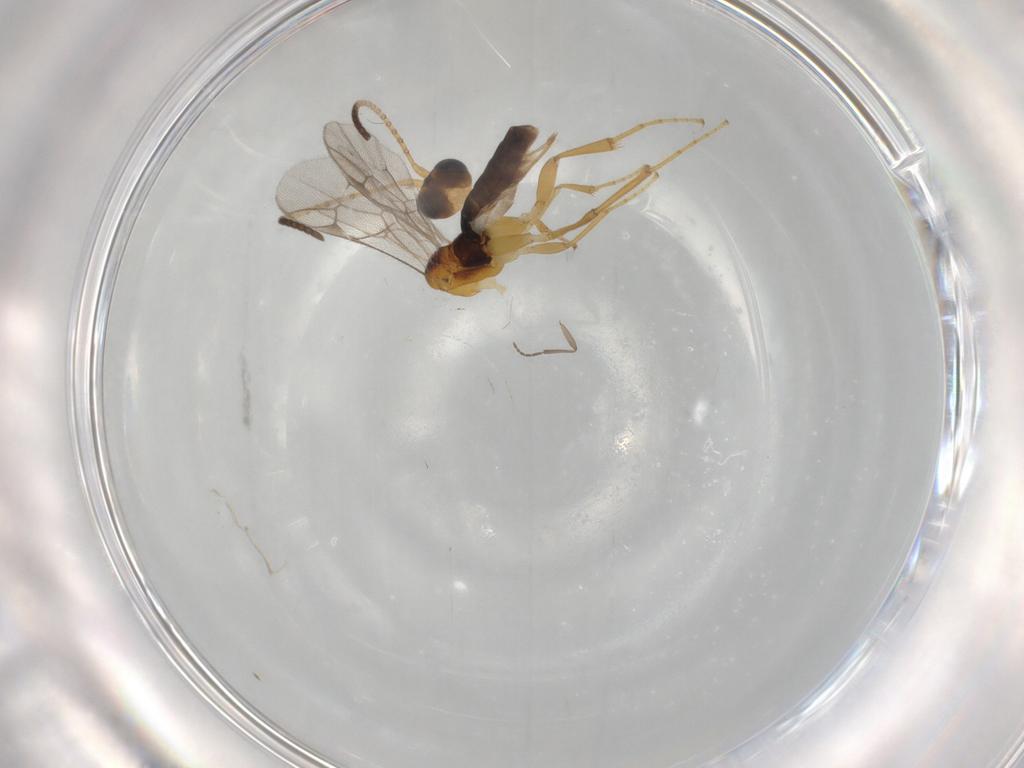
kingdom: Animalia
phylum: Arthropoda
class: Insecta
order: Hymenoptera
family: Ichneumonidae
